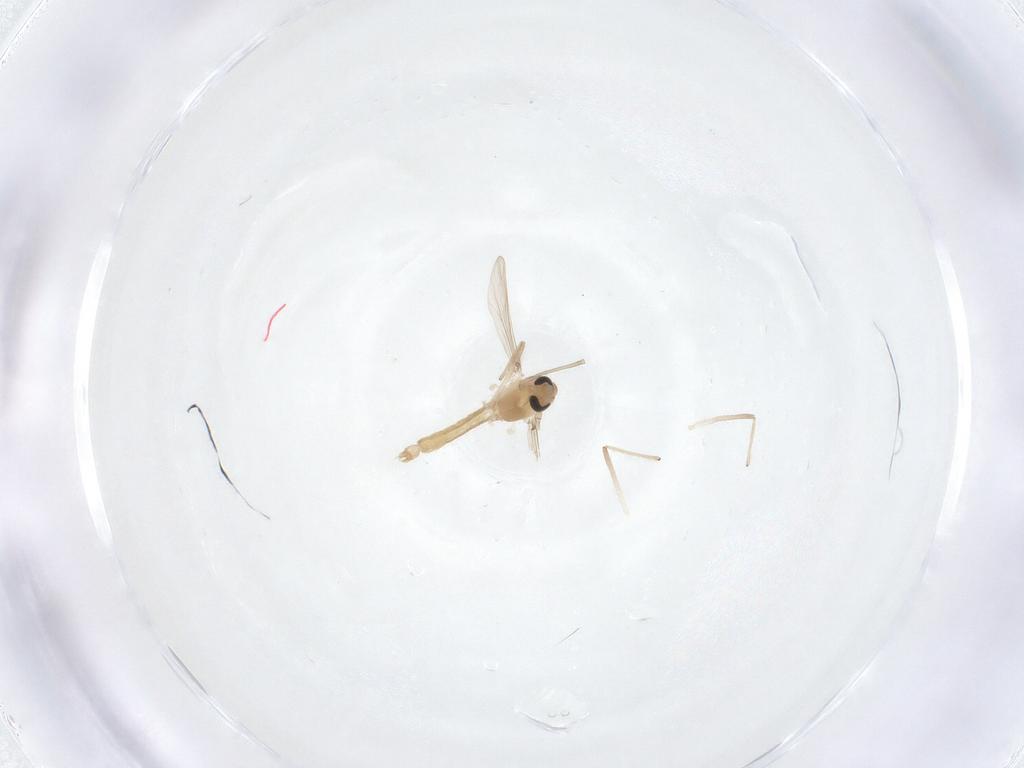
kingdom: Animalia
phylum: Arthropoda
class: Insecta
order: Diptera
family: Chironomidae
